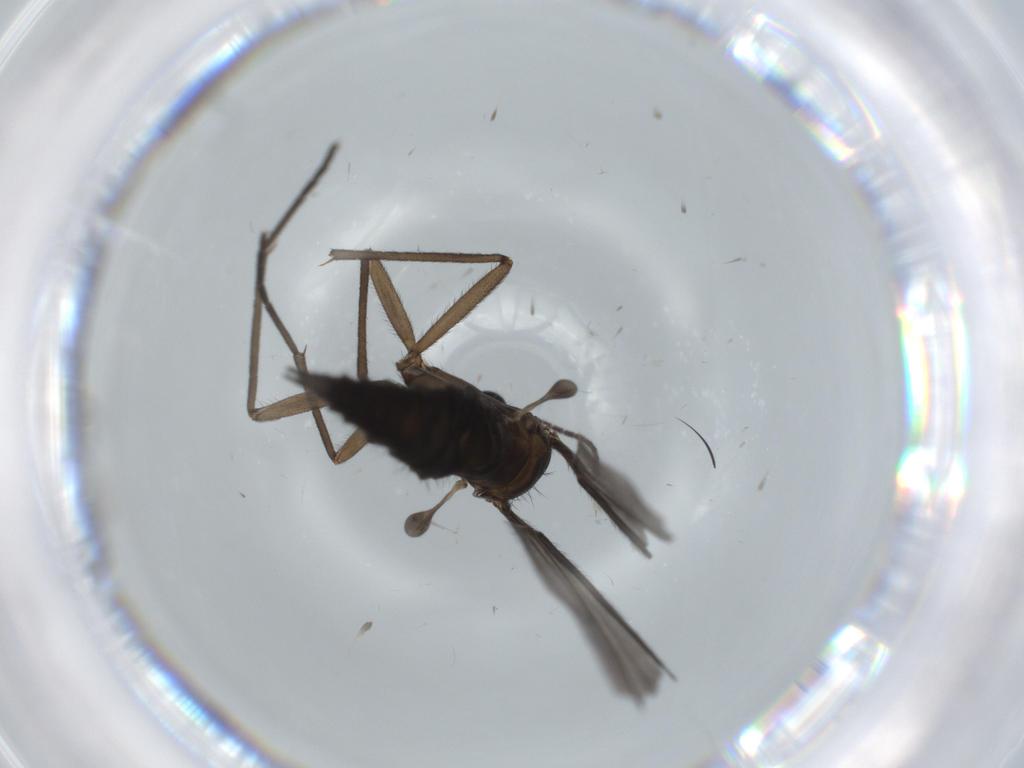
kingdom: Animalia
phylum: Arthropoda
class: Insecta
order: Diptera
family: Sciaridae
